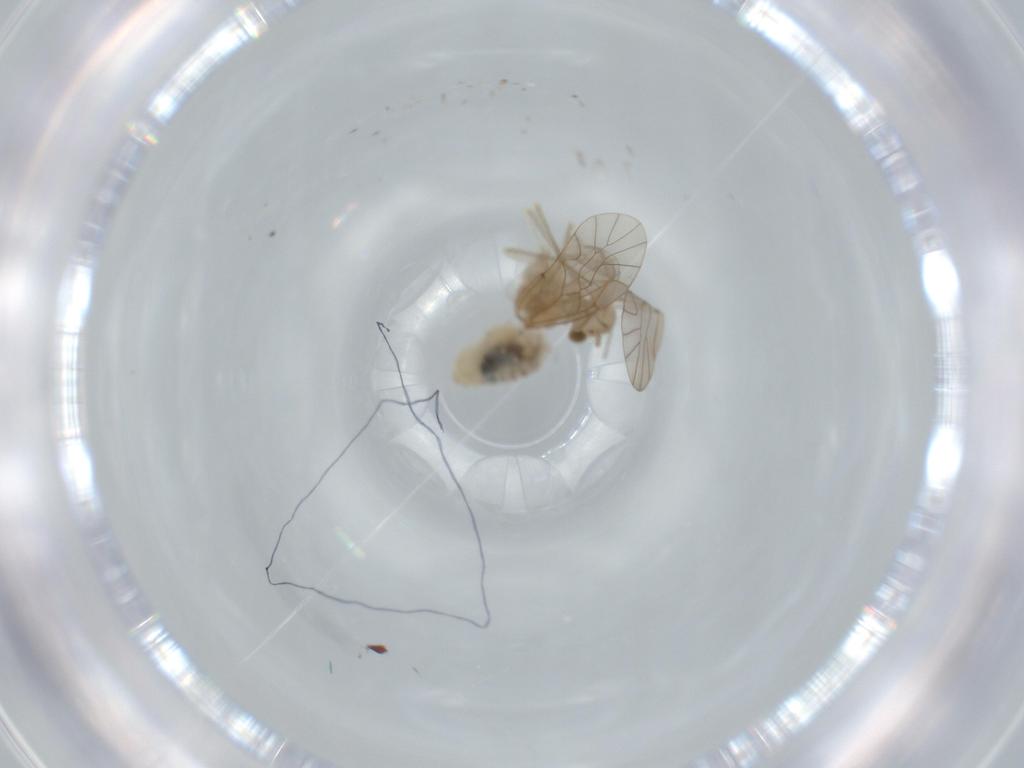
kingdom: Animalia
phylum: Arthropoda
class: Insecta
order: Psocodea
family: Lachesillidae
